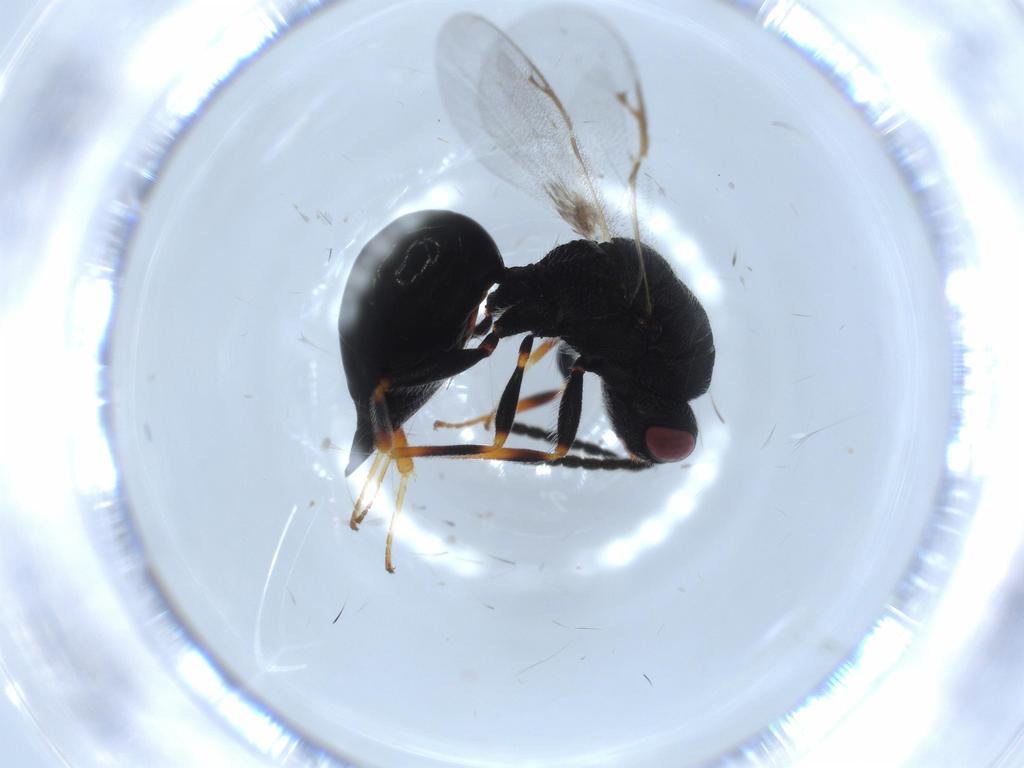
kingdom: Animalia
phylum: Arthropoda
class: Insecta
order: Hymenoptera
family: Eurytomidae
